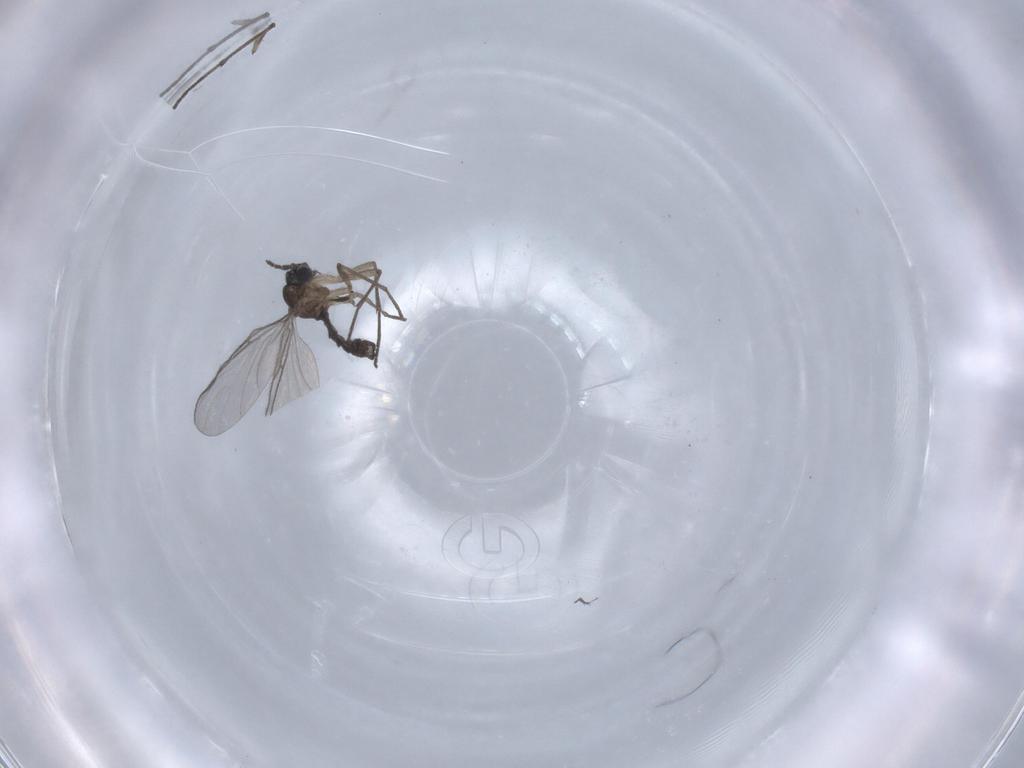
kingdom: Animalia
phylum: Arthropoda
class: Insecta
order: Diptera
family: Sciaridae
